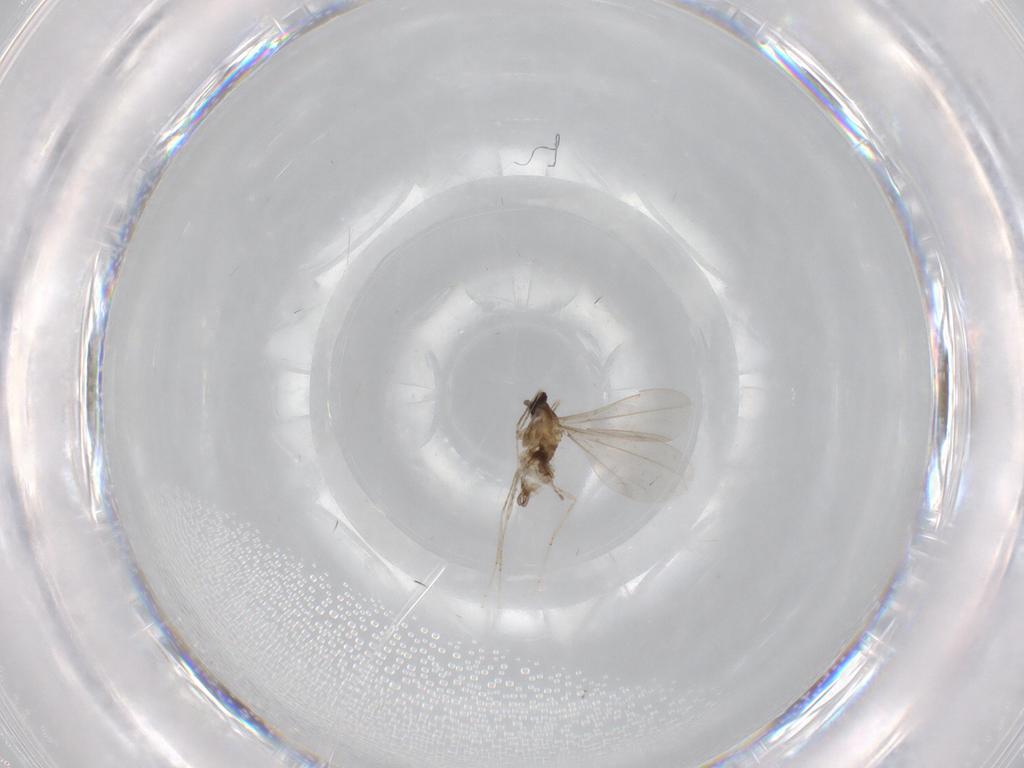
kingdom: Animalia
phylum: Arthropoda
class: Insecta
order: Diptera
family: Cecidomyiidae
